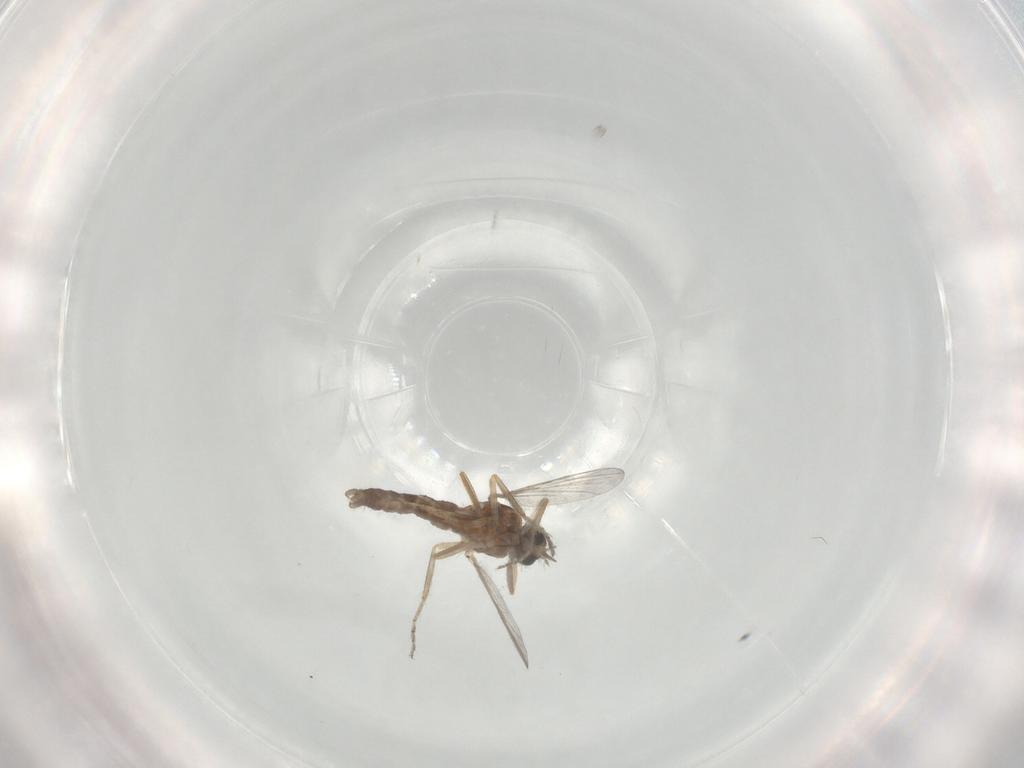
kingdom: Animalia
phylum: Arthropoda
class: Insecta
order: Diptera
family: Ceratopogonidae
